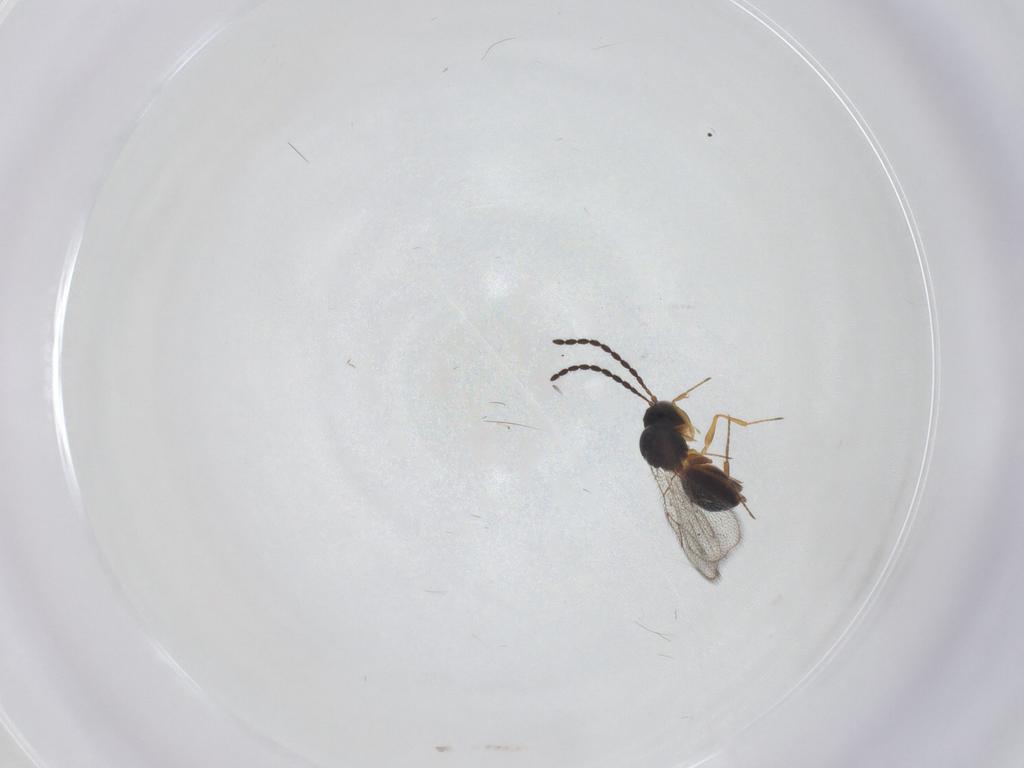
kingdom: Animalia
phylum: Arthropoda
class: Insecta
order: Hymenoptera
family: Figitidae
